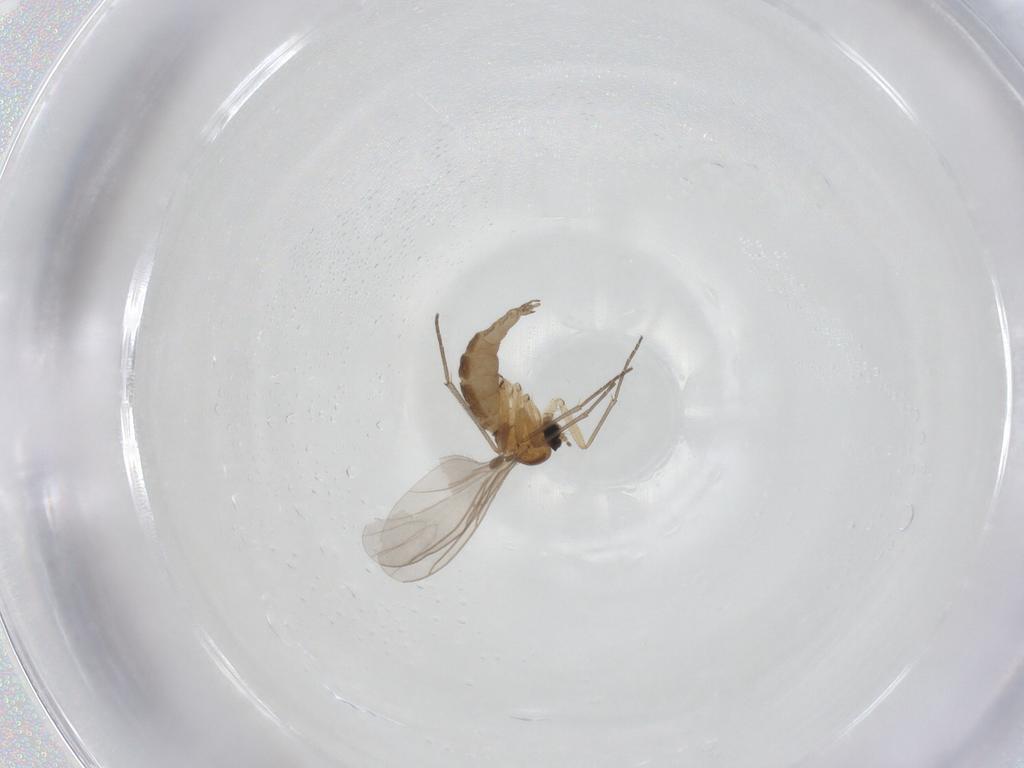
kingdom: Animalia
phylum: Arthropoda
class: Insecta
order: Diptera
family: Sciaridae
